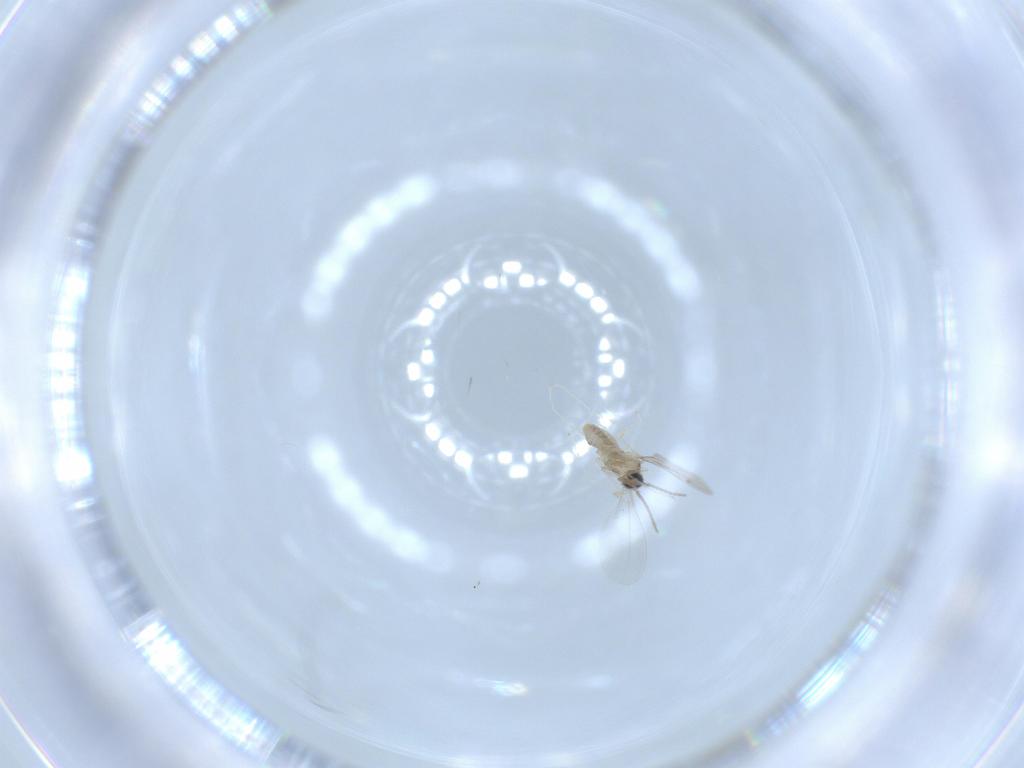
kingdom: Animalia
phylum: Arthropoda
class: Insecta
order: Diptera
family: Cecidomyiidae
